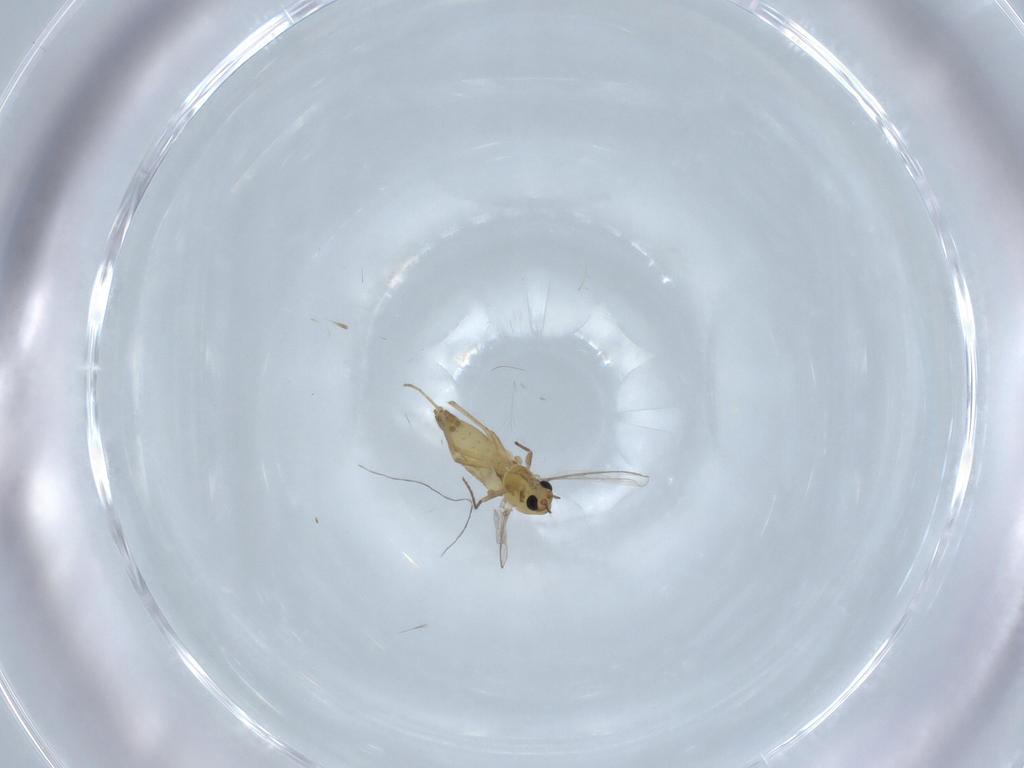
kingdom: Animalia
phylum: Arthropoda
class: Insecta
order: Diptera
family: Chironomidae
